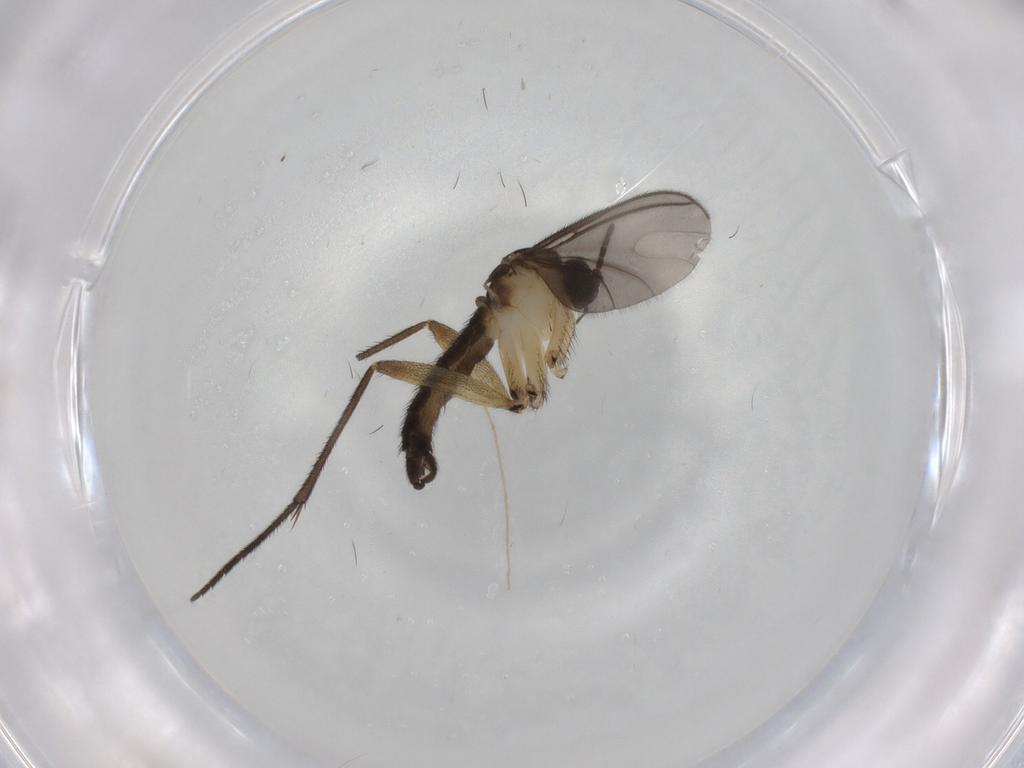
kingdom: Animalia
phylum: Arthropoda
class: Insecta
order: Diptera
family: Sciaridae
